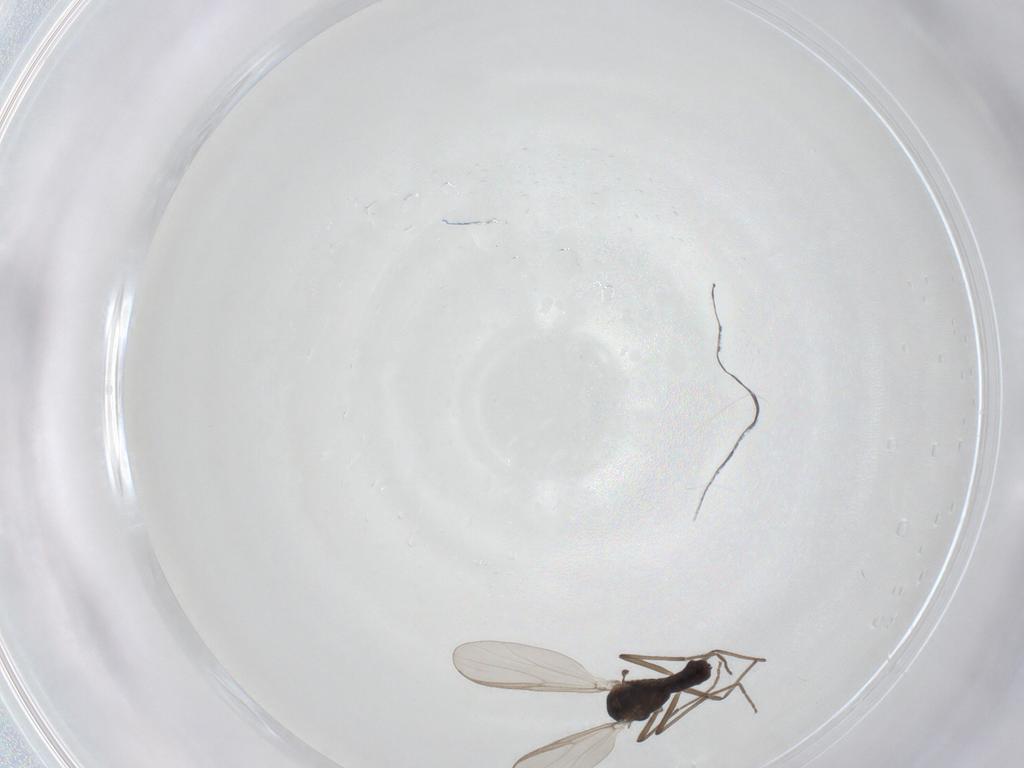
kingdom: Animalia
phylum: Arthropoda
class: Insecta
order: Diptera
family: Chironomidae
